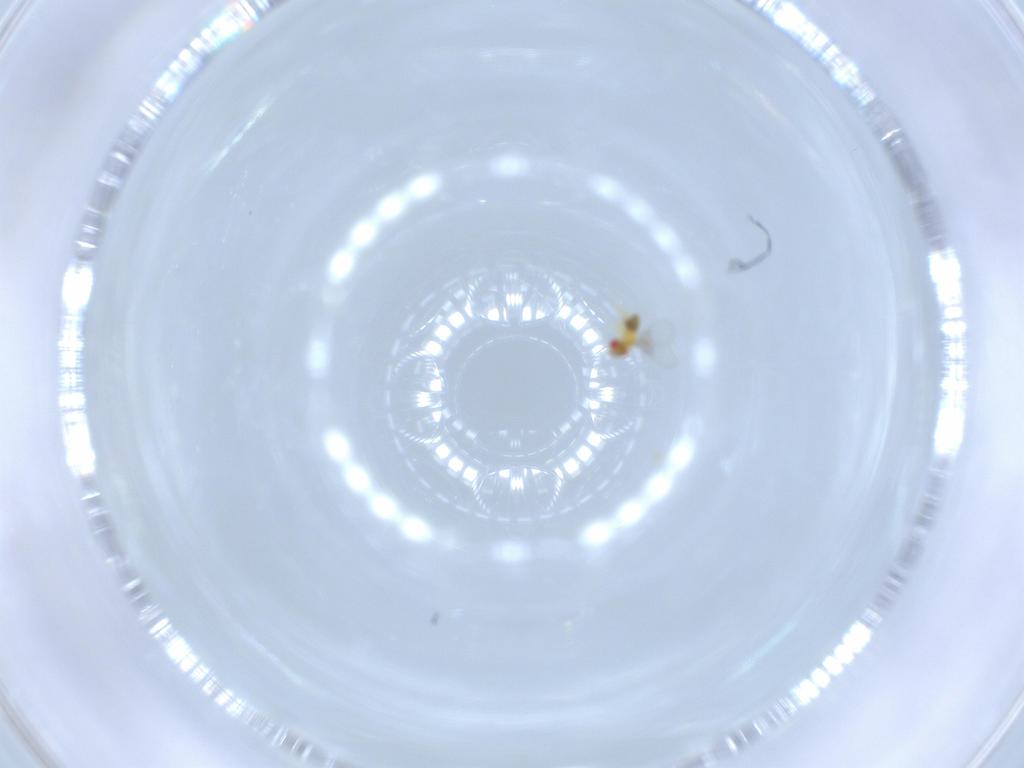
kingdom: Animalia
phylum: Arthropoda
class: Insecta
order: Hymenoptera
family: Trichogrammatidae
